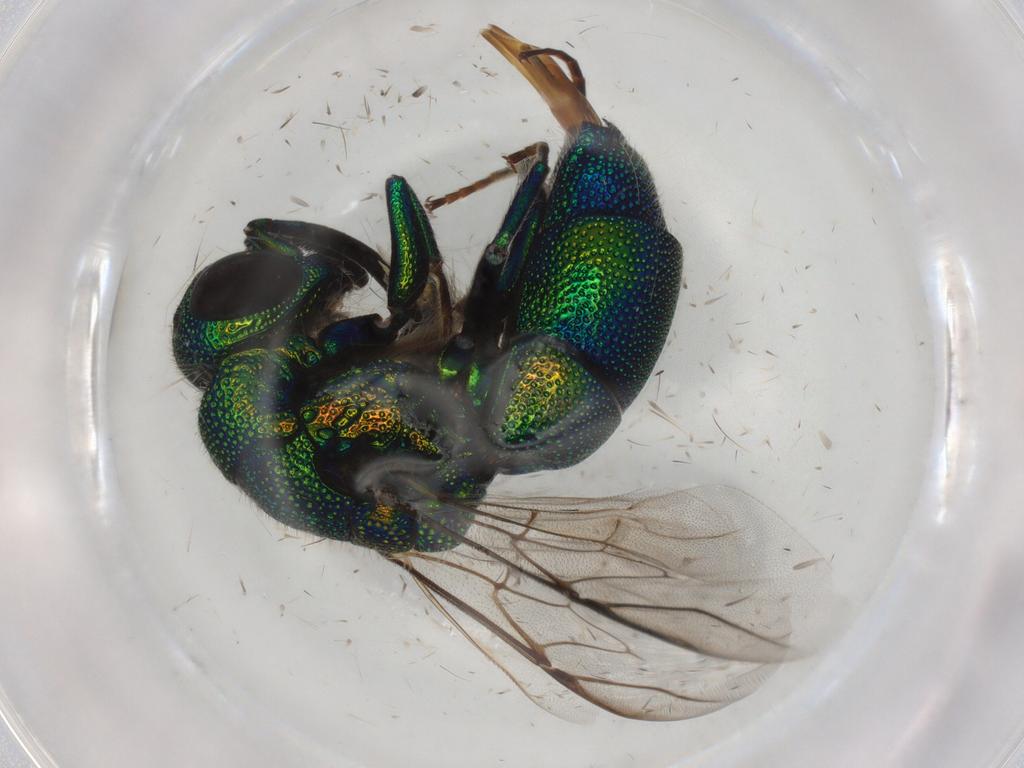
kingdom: Animalia
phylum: Arthropoda
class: Insecta
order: Hymenoptera
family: Chrysididae
